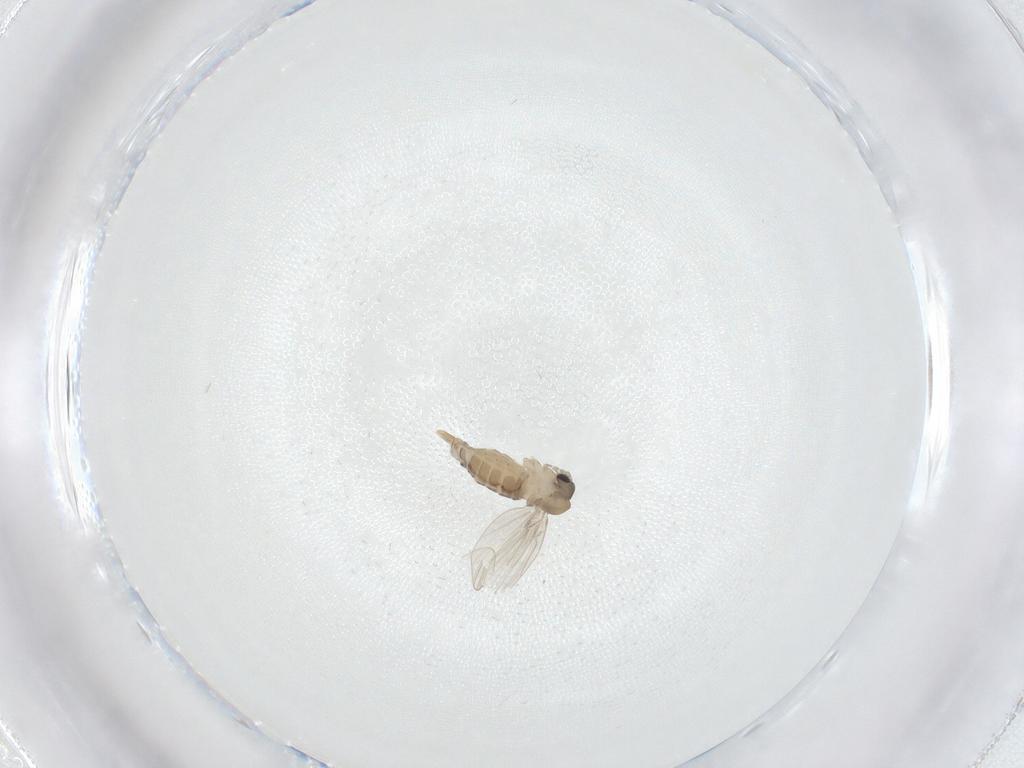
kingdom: Animalia
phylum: Arthropoda
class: Insecta
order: Diptera
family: Psychodidae
